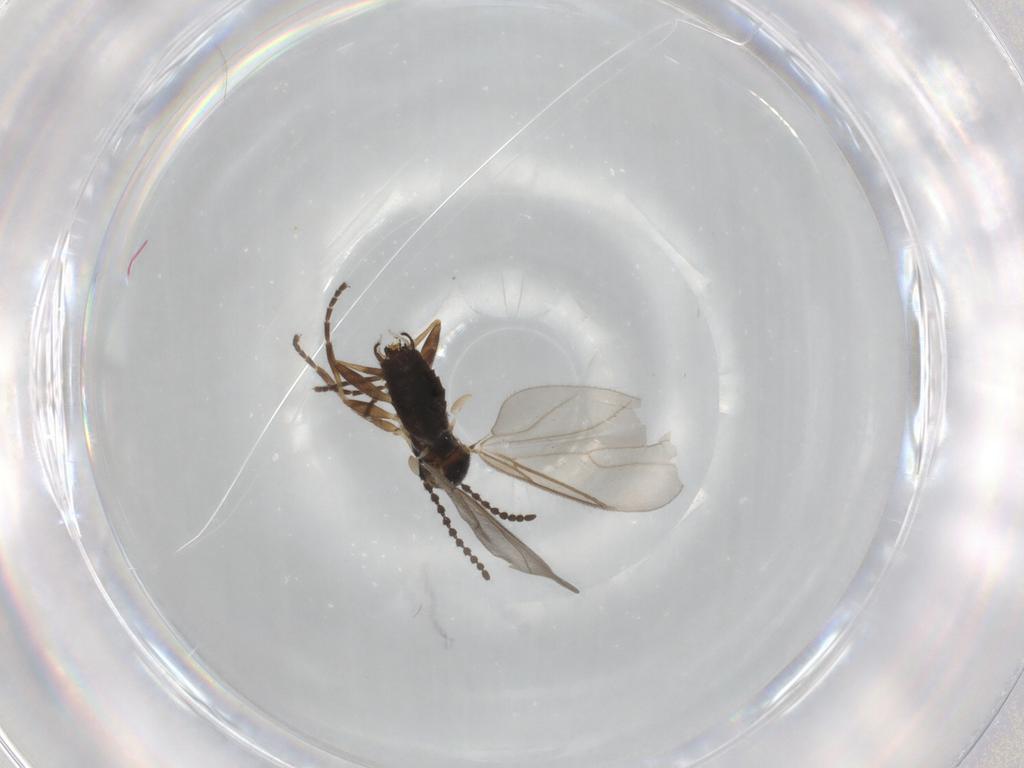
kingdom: Animalia
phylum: Arthropoda
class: Insecta
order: Diptera
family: Scatopsidae
